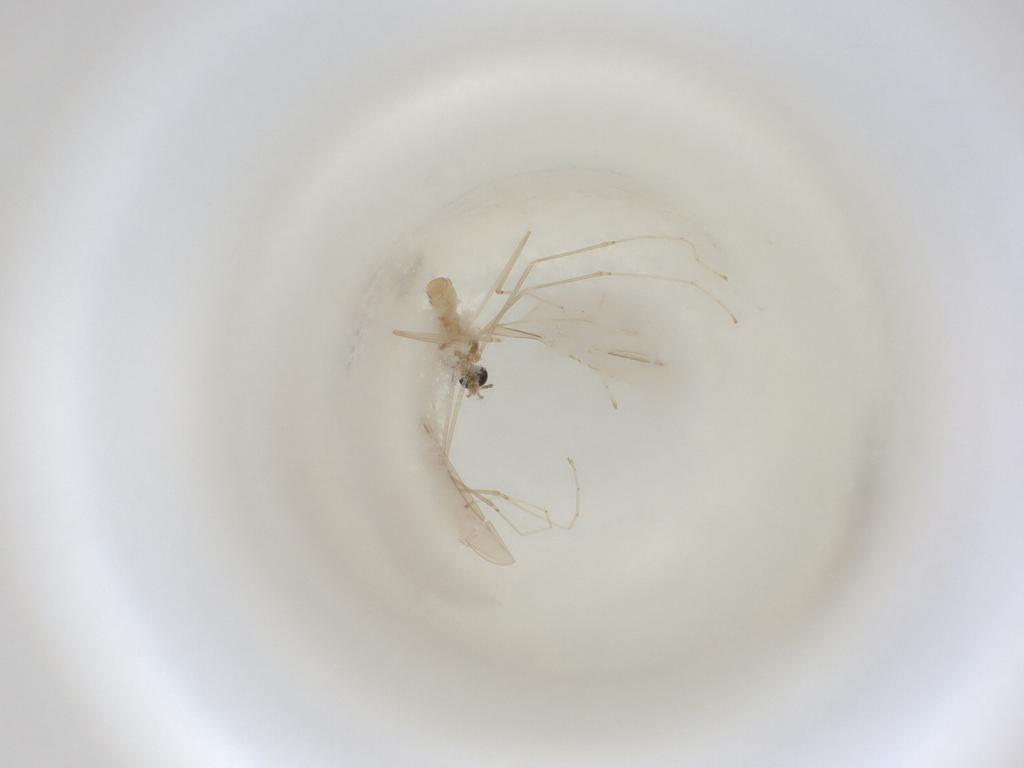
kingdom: Animalia
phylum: Arthropoda
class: Insecta
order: Diptera
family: Cecidomyiidae
